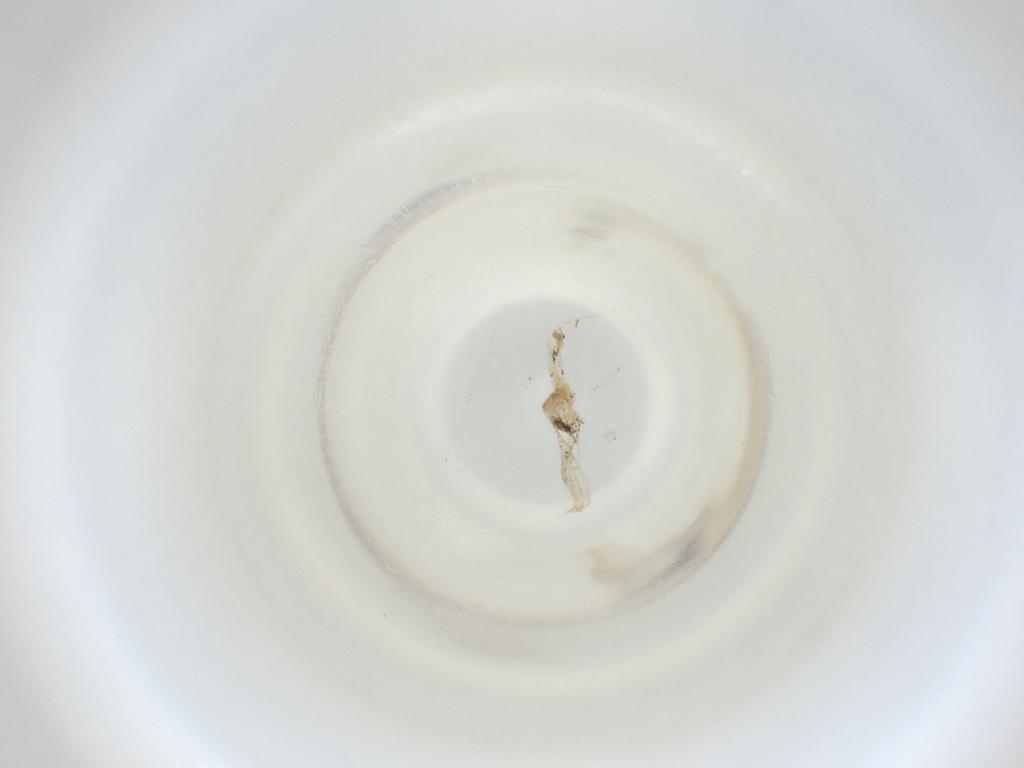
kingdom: Animalia
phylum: Arthropoda
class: Insecta
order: Diptera
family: Cecidomyiidae
